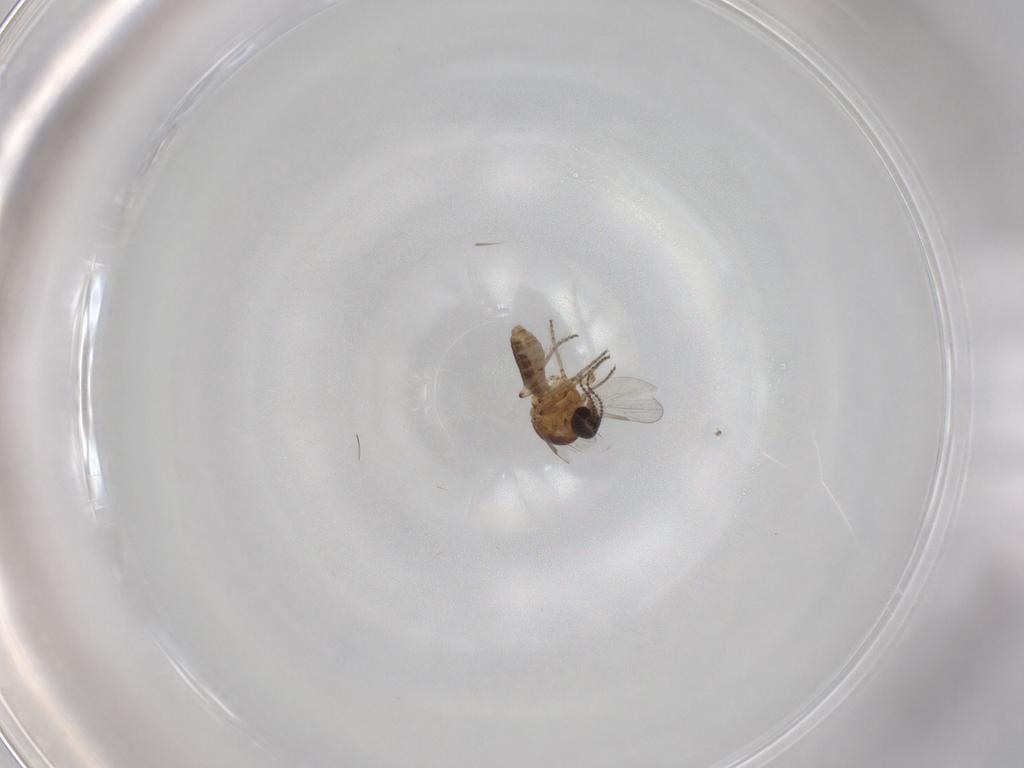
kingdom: Animalia
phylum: Arthropoda
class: Insecta
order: Diptera
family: Ceratopogonidae
